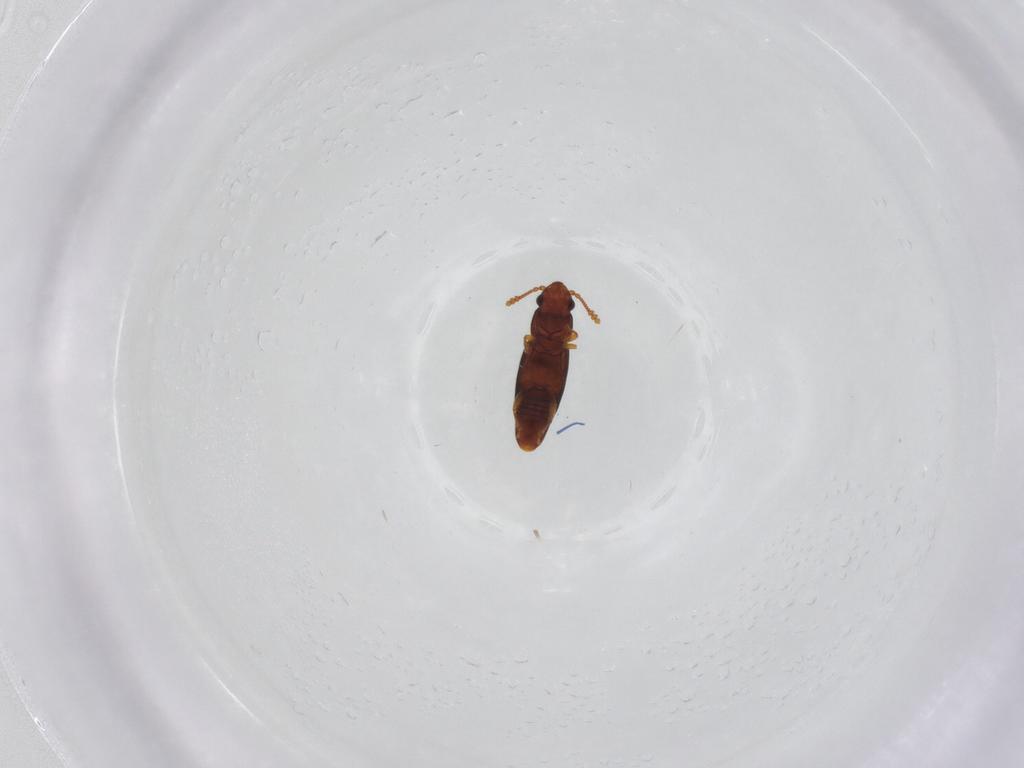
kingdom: Animalia
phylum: Arthropoda
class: Insecta
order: Coleoptera
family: Smicripidae
